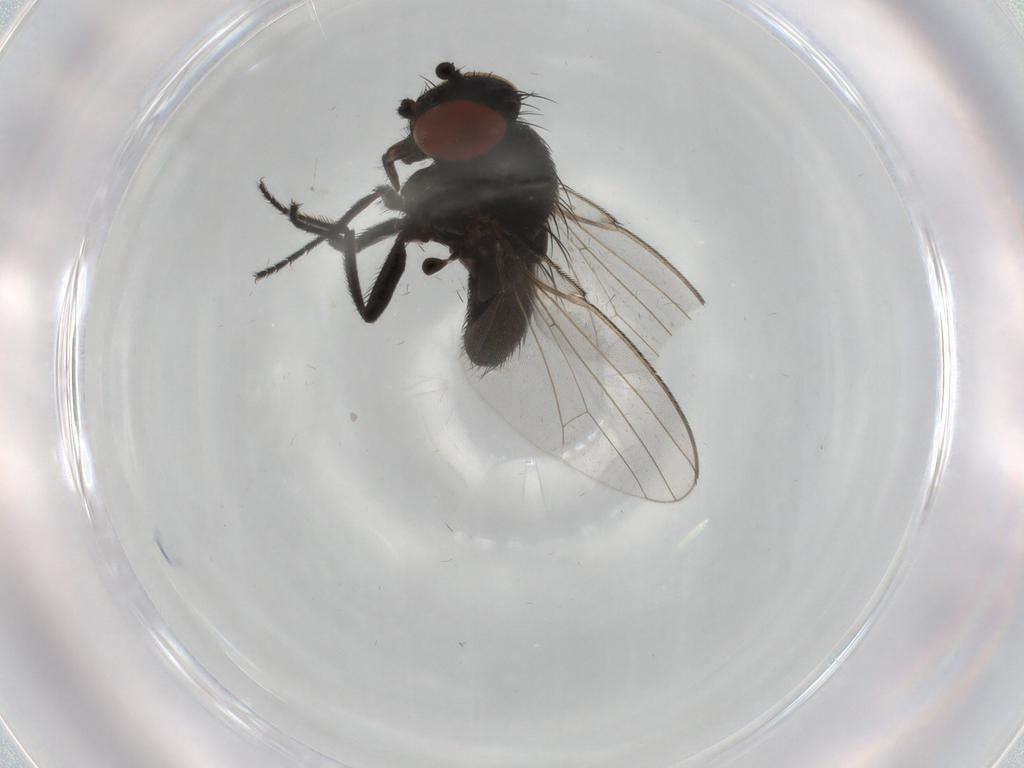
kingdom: Animalia
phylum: Arthropoda
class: Insecta
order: Diptera
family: Milichiidae
